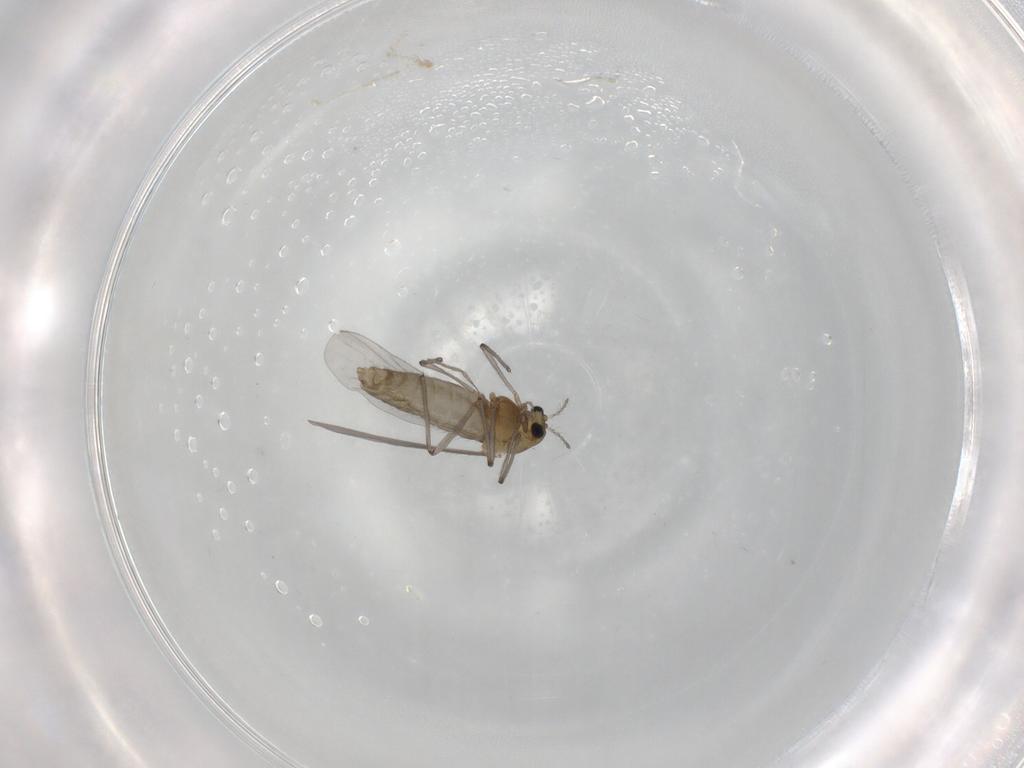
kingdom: Animalia
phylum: Arthropoda
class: Insecta
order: Diptera
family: Chironomidae
